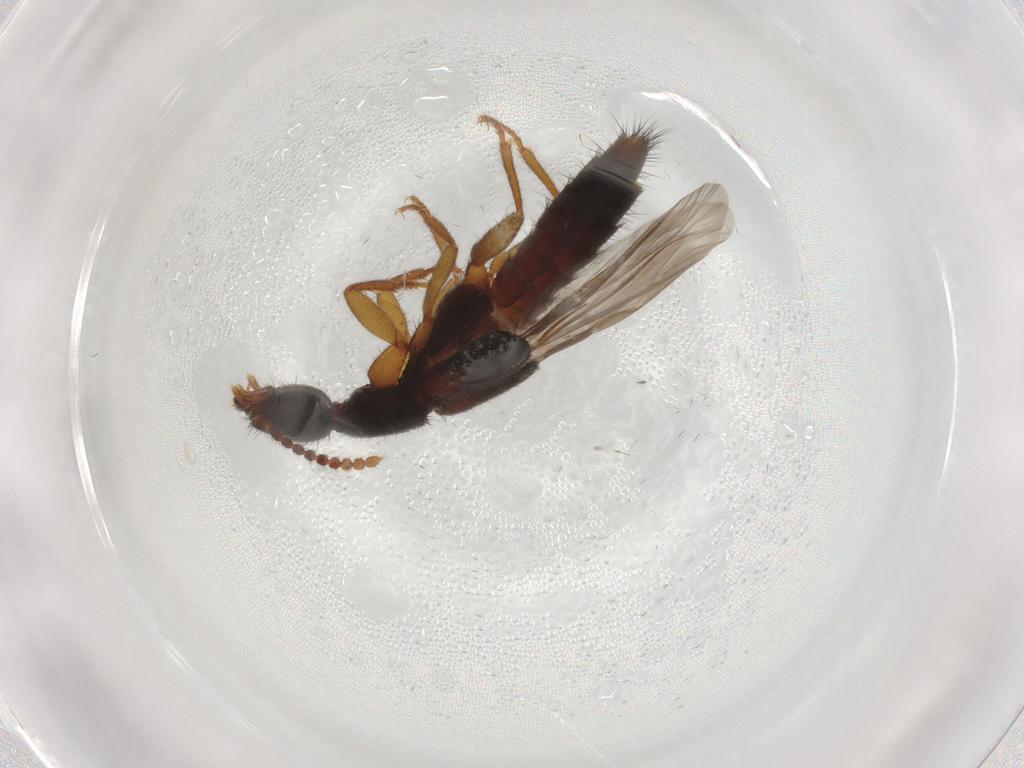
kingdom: Animalia
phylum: Arthropoda
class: Insecta
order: Coleoptera
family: Staphylinidae
